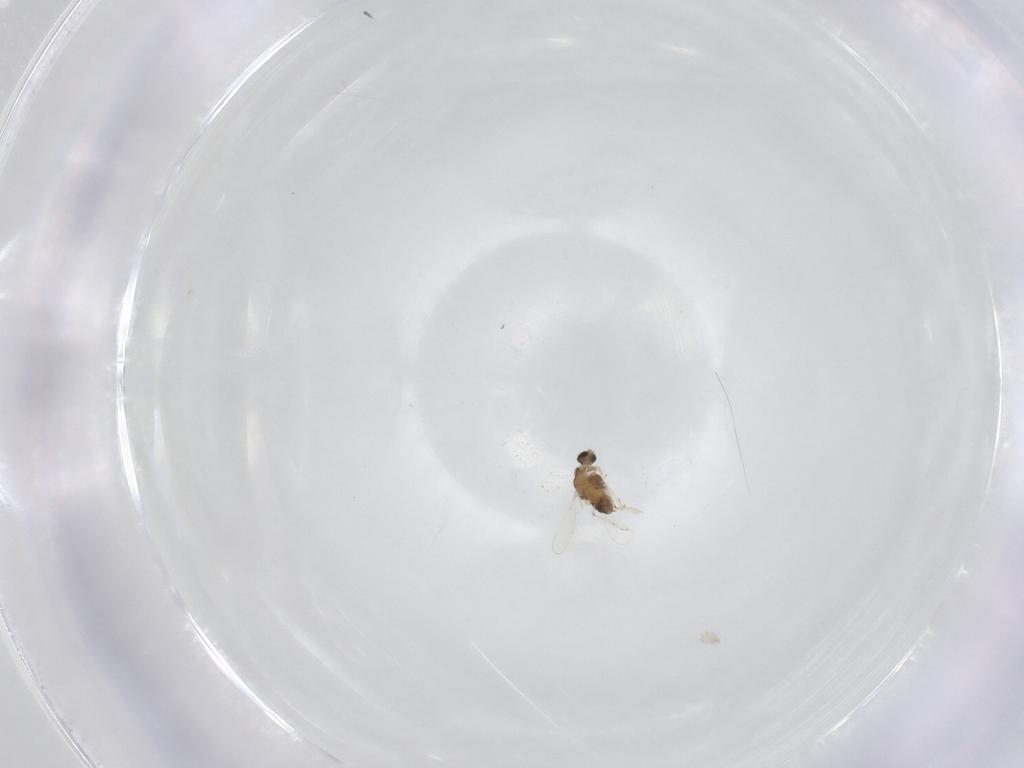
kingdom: Animalia
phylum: Arthropoda
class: Insecta
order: Diptera
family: Chironomidae
